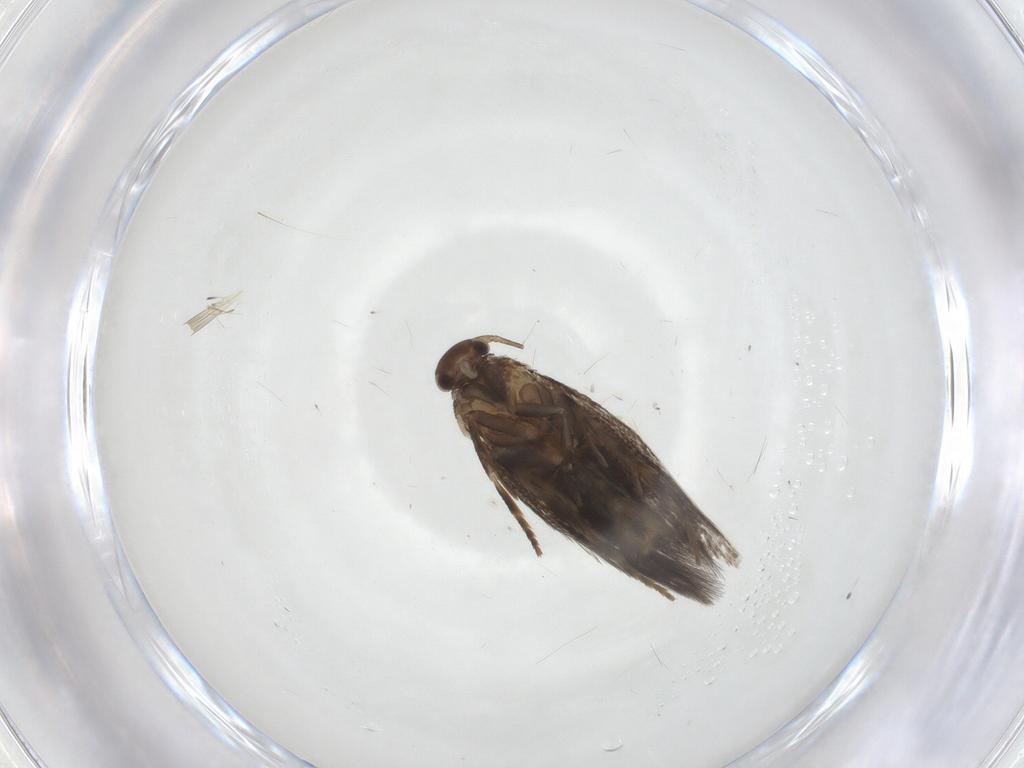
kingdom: Animalia
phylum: Arthropoda
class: Insecta
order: Lepidoptera
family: Elachistidae
